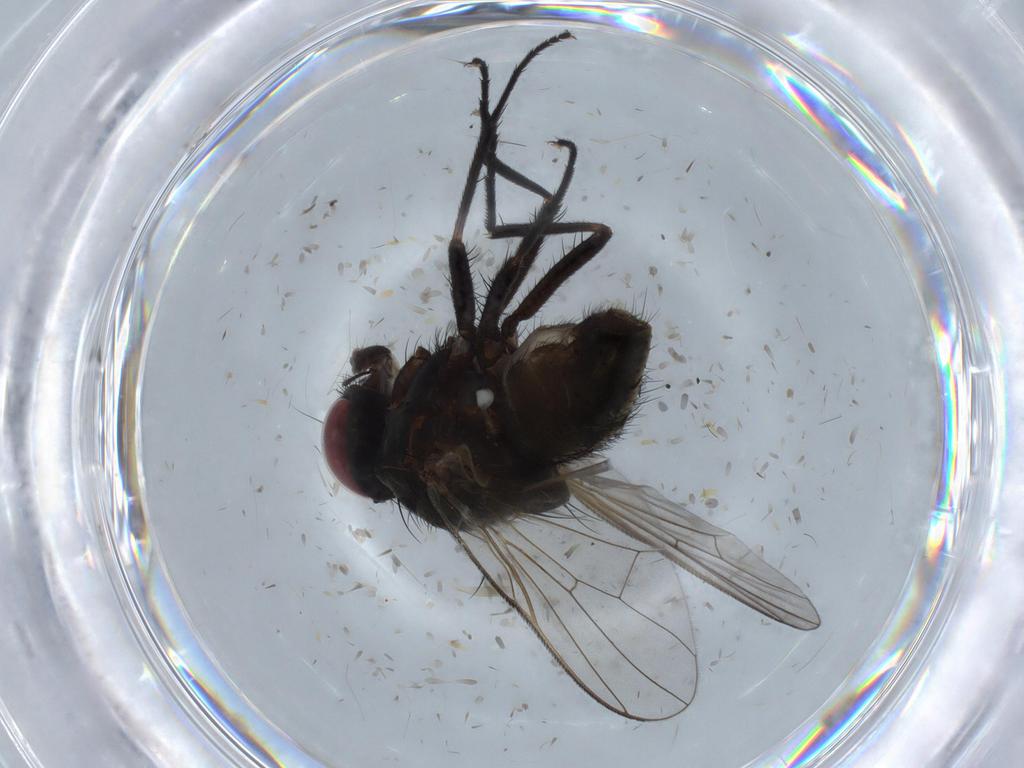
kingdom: Animalia
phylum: Arthropoda
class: Insecta
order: Diptera
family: Muscidae
